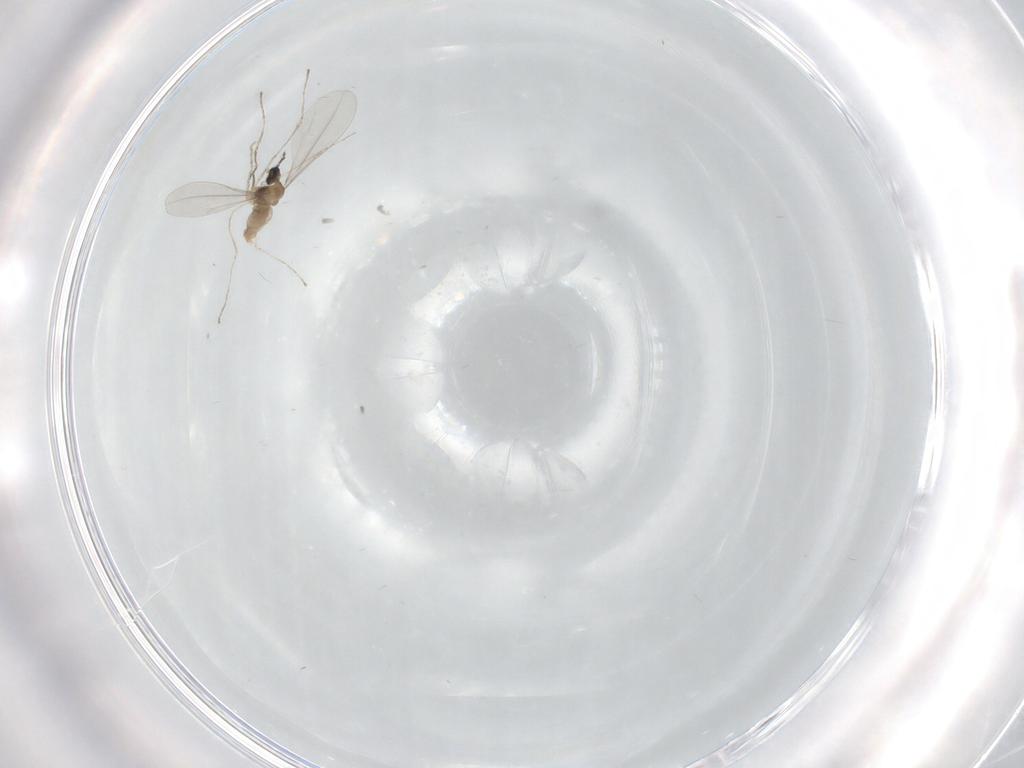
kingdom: Animalia
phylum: Arthropoda
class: Insecta
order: Diptera
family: Cecidomyiidae
